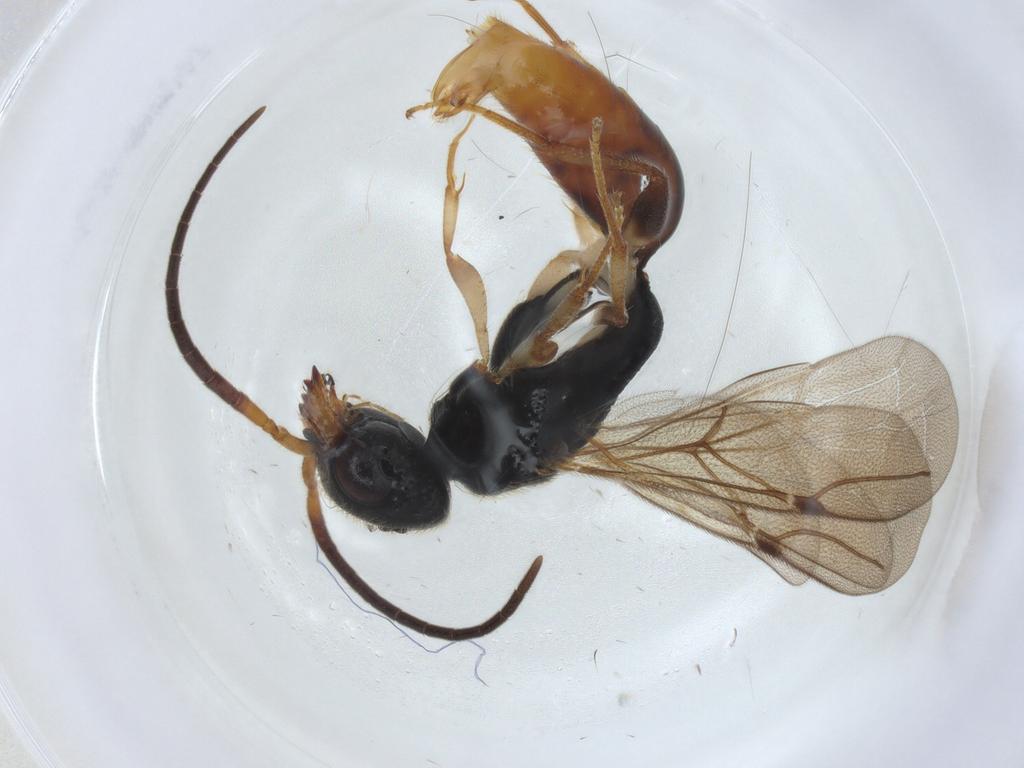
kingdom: Animalia
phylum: Arthropoda
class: Insecta
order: Hymenoptera
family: Bethylidae
